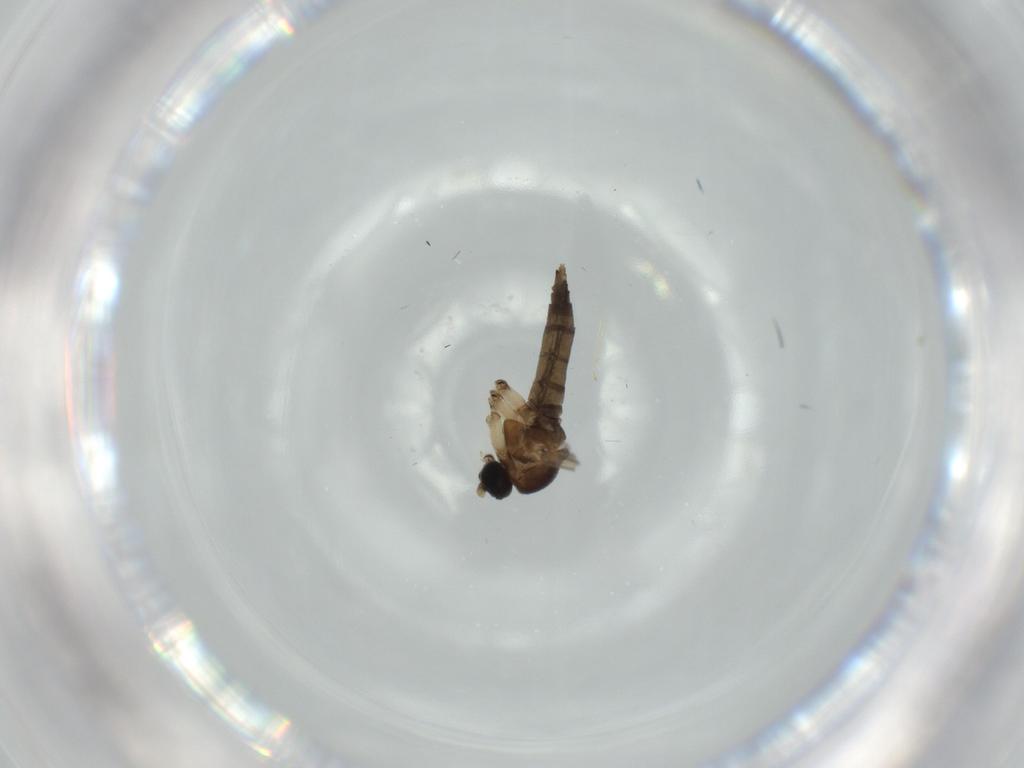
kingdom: Animalia
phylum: Arthropoda
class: Insecta
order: Diptera
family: Sciaridae
